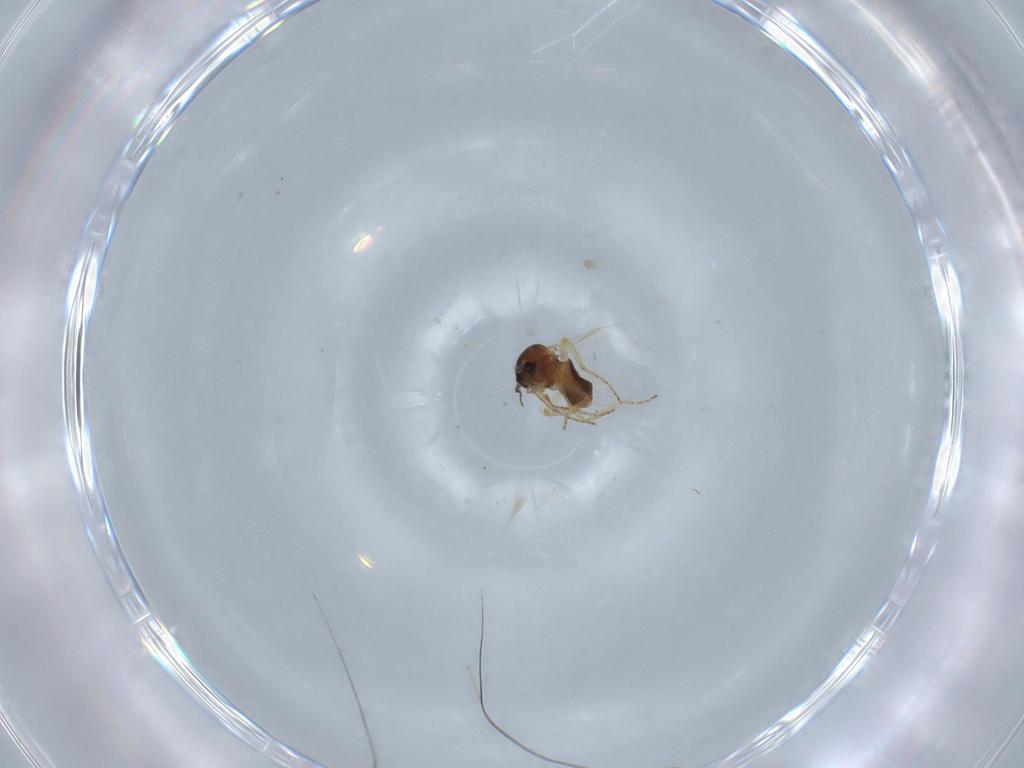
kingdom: Animalia
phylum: Arthropoda
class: Insecta
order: Diptera
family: Ceratopogonidae
